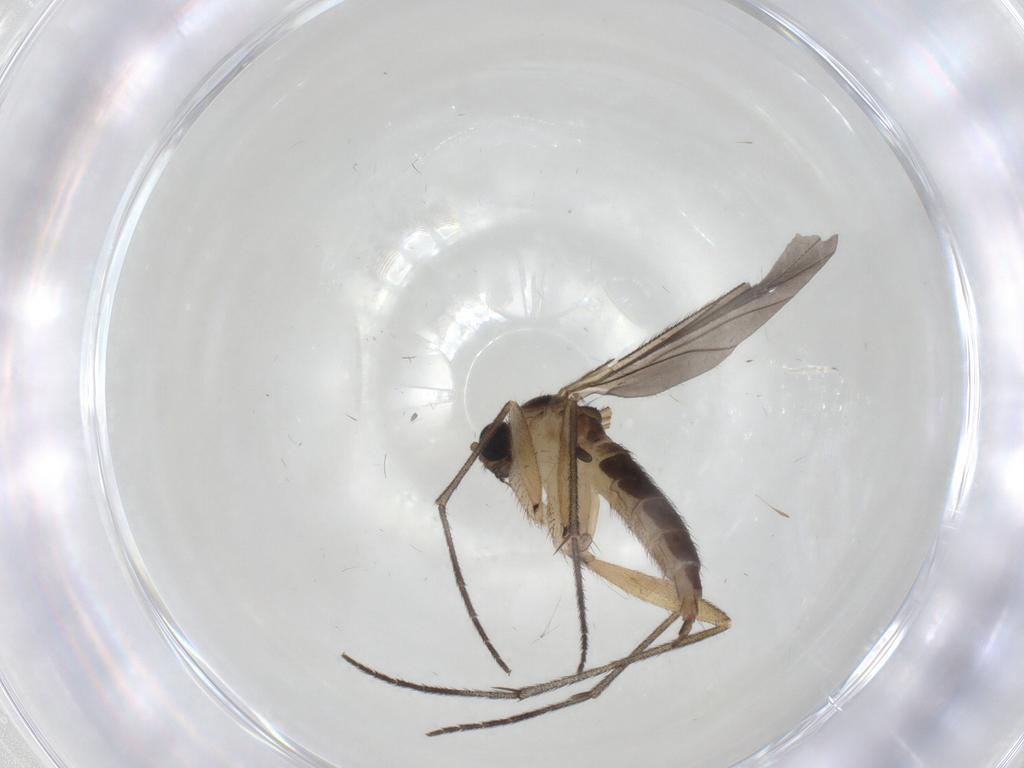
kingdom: Animalia
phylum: Arthropoda
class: Insecta
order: Diptera
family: Sciaridae
